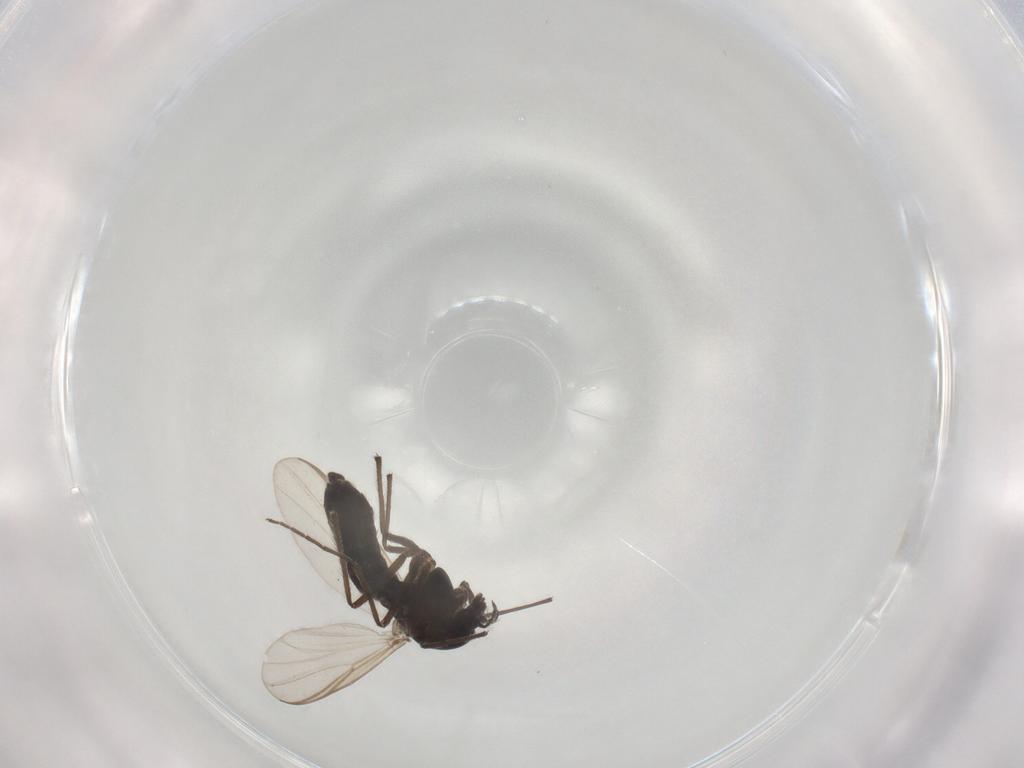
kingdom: Animalia
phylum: Arthropoda
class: Insecta
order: Diptera
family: Chironomidae
